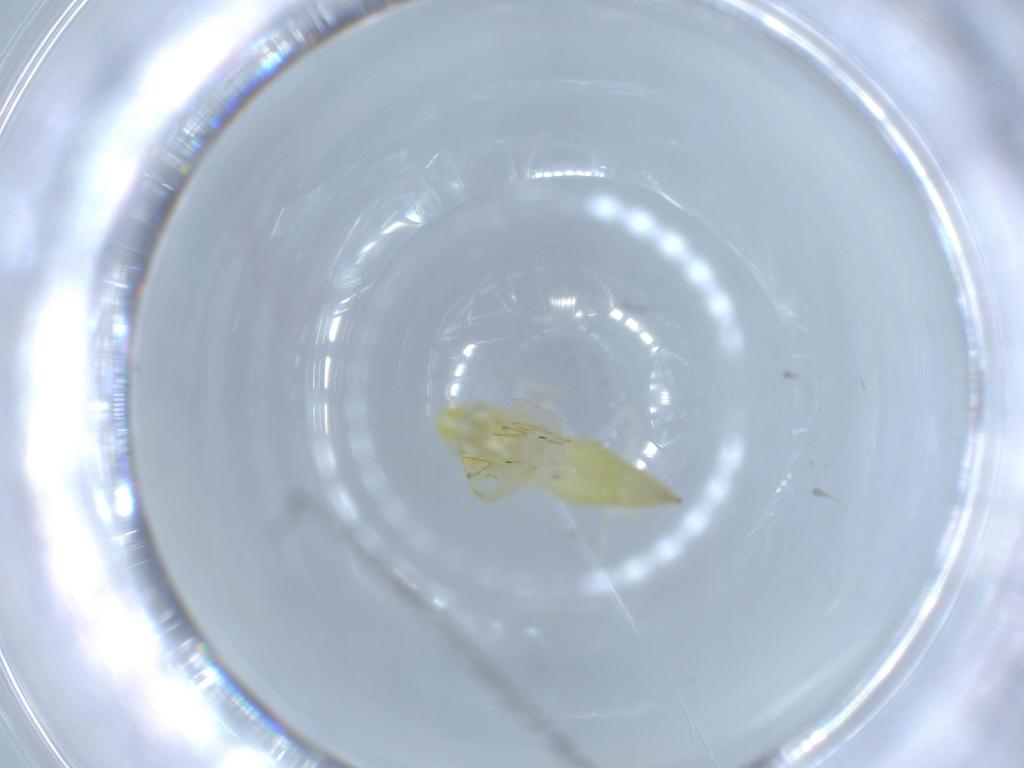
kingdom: Animalia
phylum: Arthropoda
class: Insecta
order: Hemiptera
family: Cicadellidae
